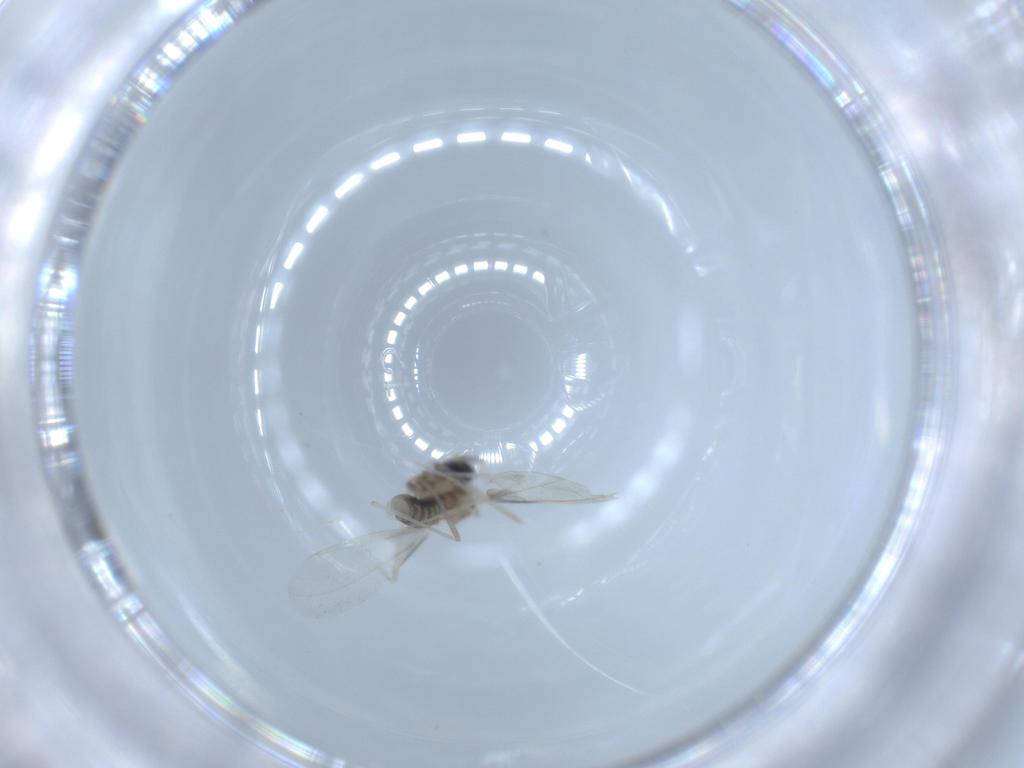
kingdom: Animalia
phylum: Arthropoda
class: Insecta
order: Diptera
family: Cecidomyiidae
